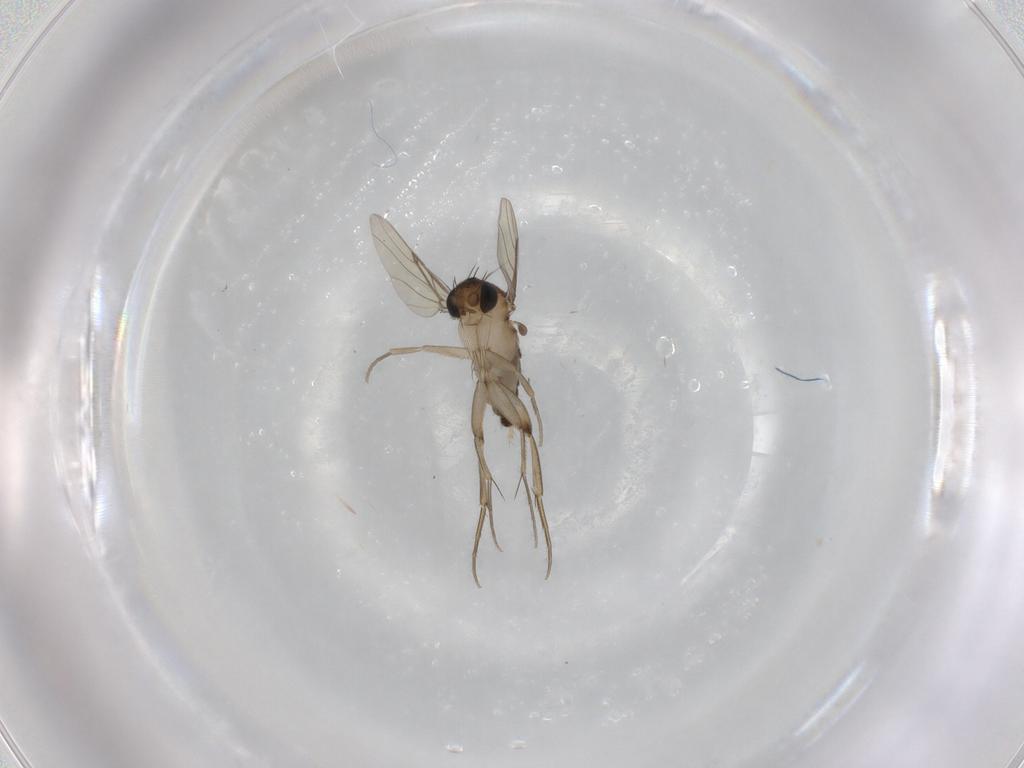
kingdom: Animalia
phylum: Arthropoda
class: Insecta
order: Diptera
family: Phoridae
